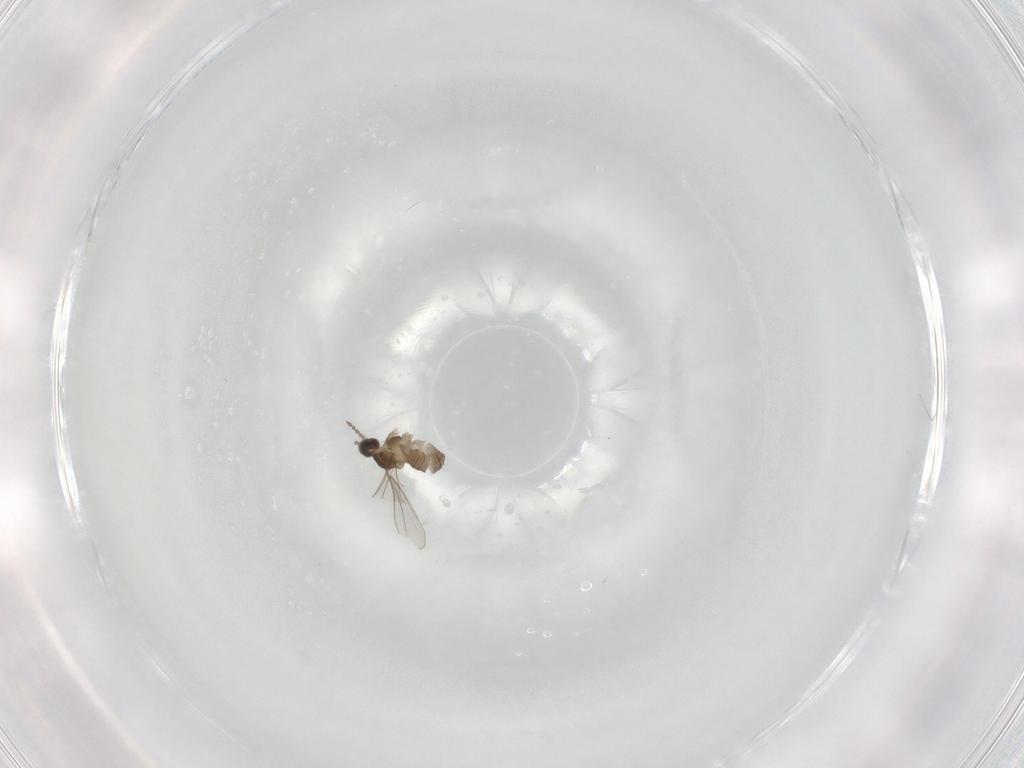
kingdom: Animalia
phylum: Arthropoda
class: Insecta
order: Diptera
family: Cecidomyiidae
